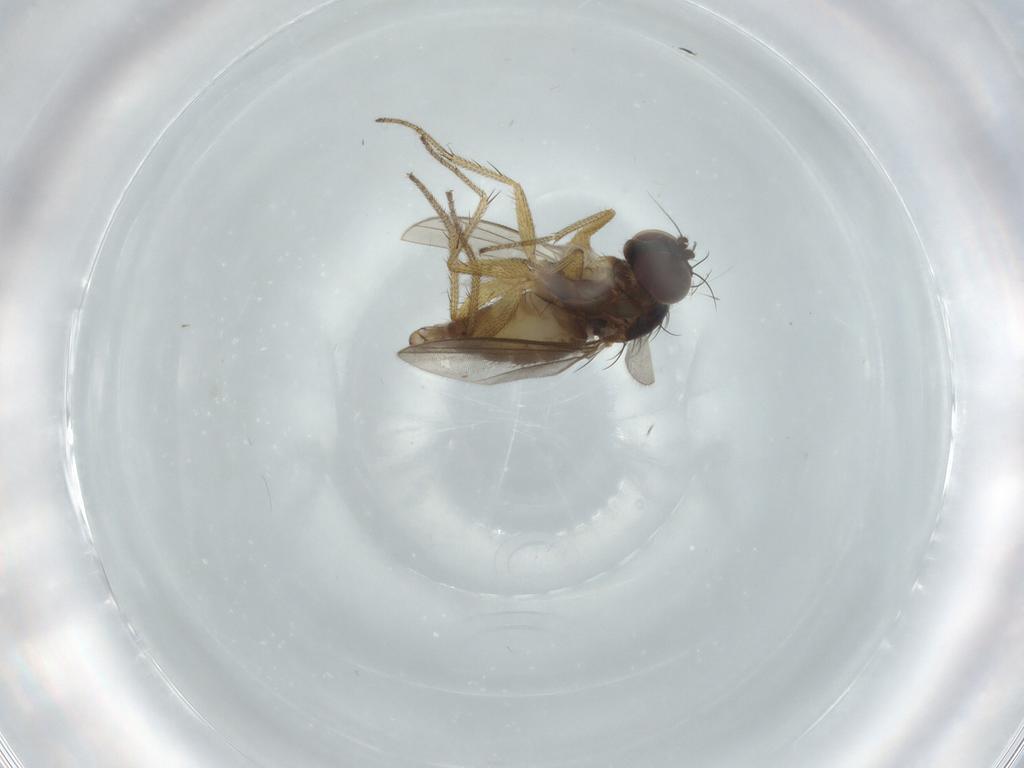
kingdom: Animalia
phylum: Arthropoda
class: Insecta
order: Diptera
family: Dolichopodidae
